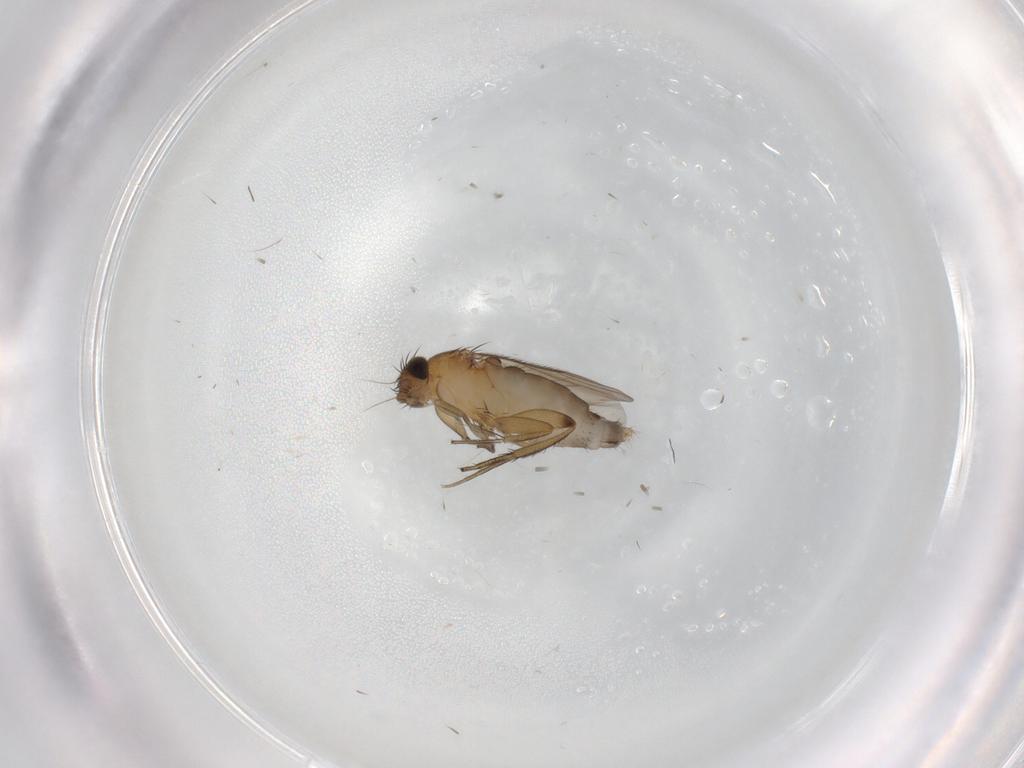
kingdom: Animalia
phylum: Arthropoda
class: Insecta
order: Diptera
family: Phoridae
